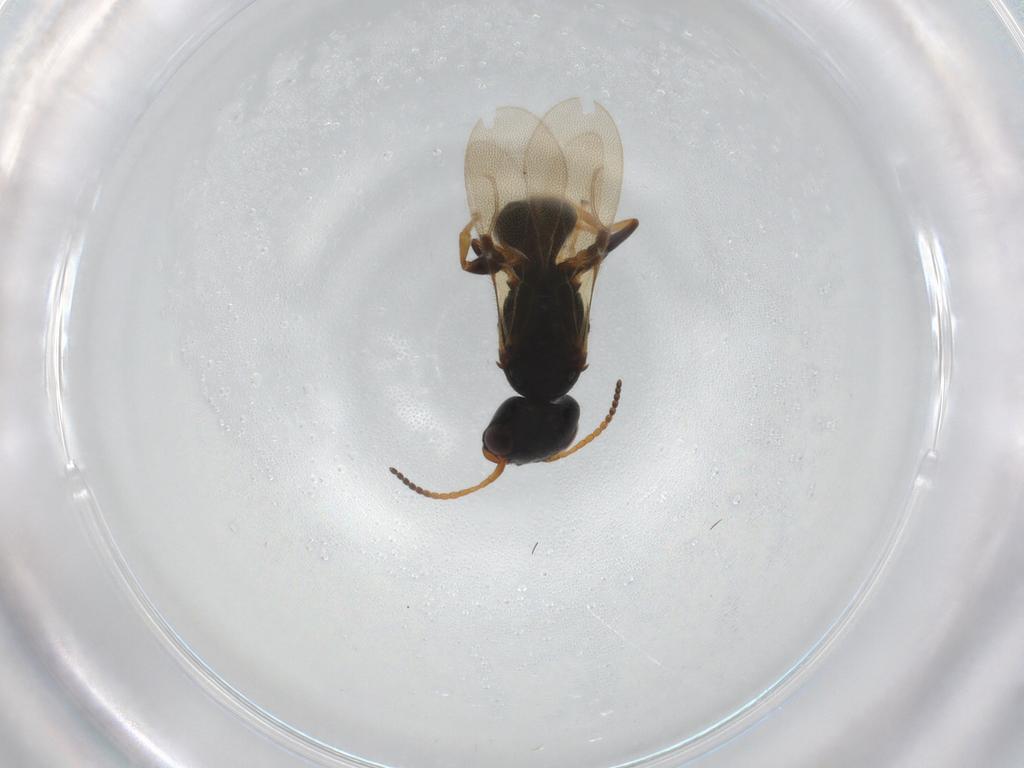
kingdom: Animalia
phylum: Arthropoda
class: Insecta
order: Hymenoptera
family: Bethylidae
